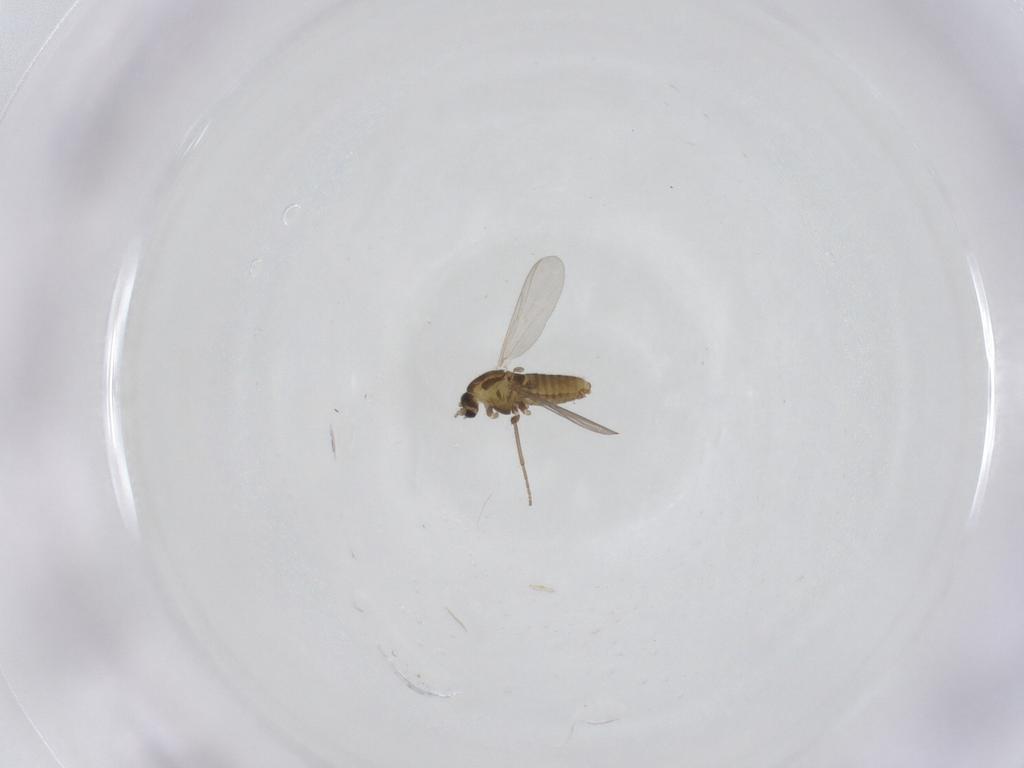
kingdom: Animalia
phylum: Arthropoda
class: Insecta
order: Diptera
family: Chironomidae
